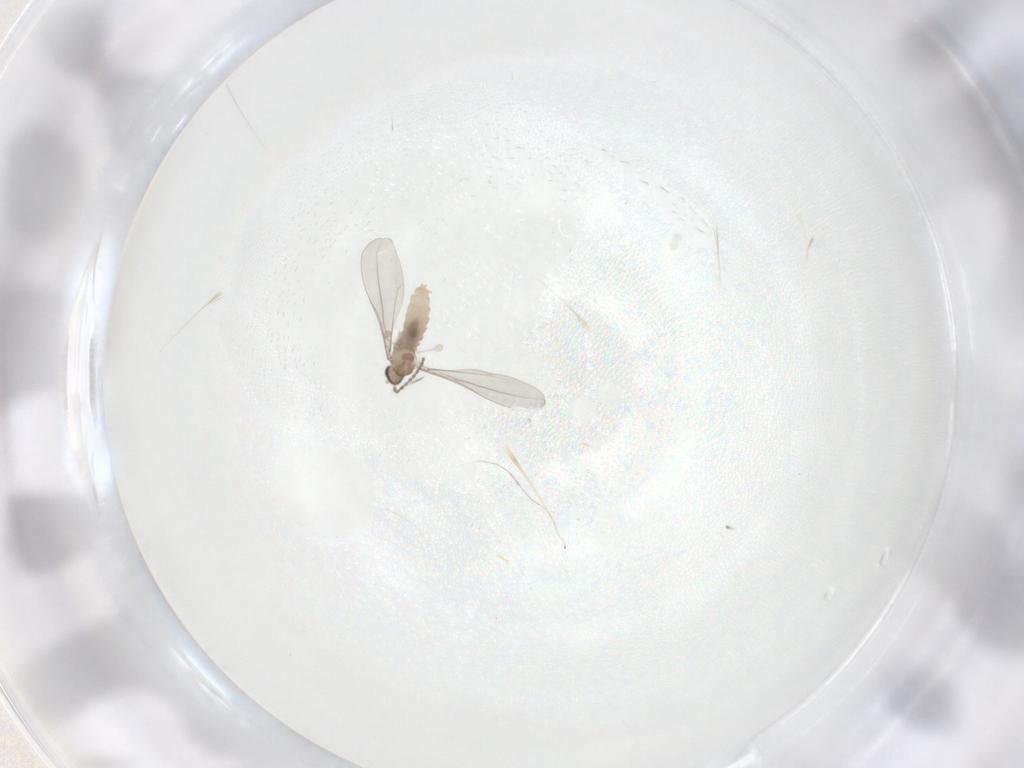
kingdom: Animalia
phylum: Arthropoda
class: Insecta
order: Diptera
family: Cecidomyiidae
